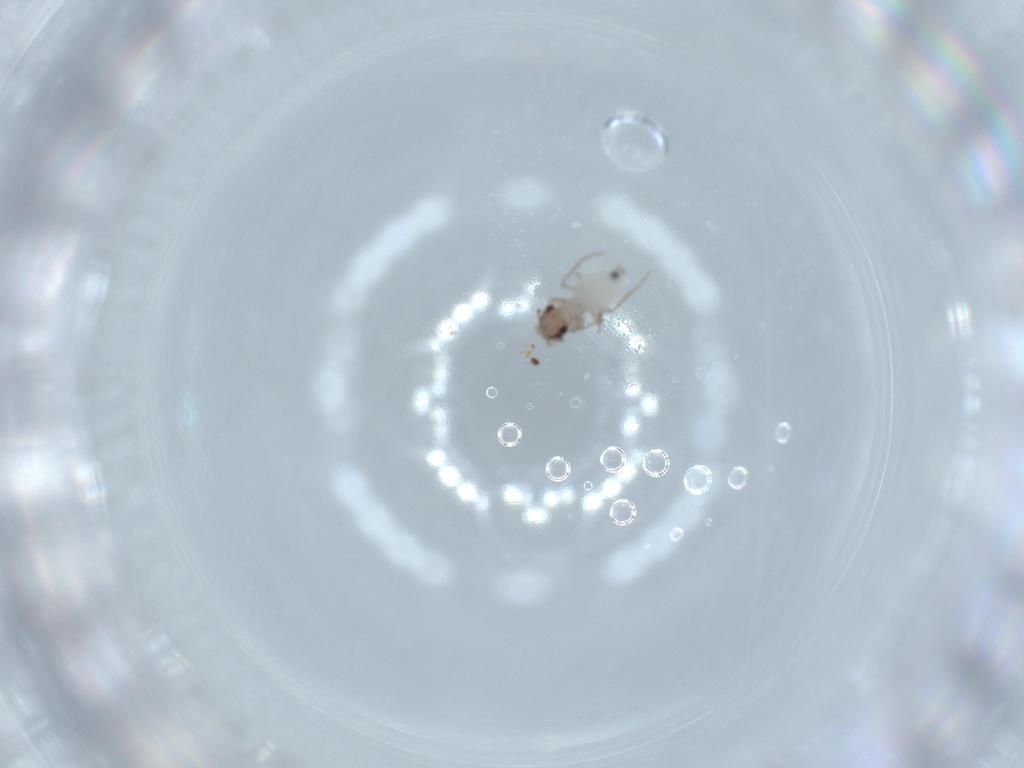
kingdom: Animalia
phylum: Arthropoda
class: Insecta
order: Psocodea
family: Lepidopsocidae
